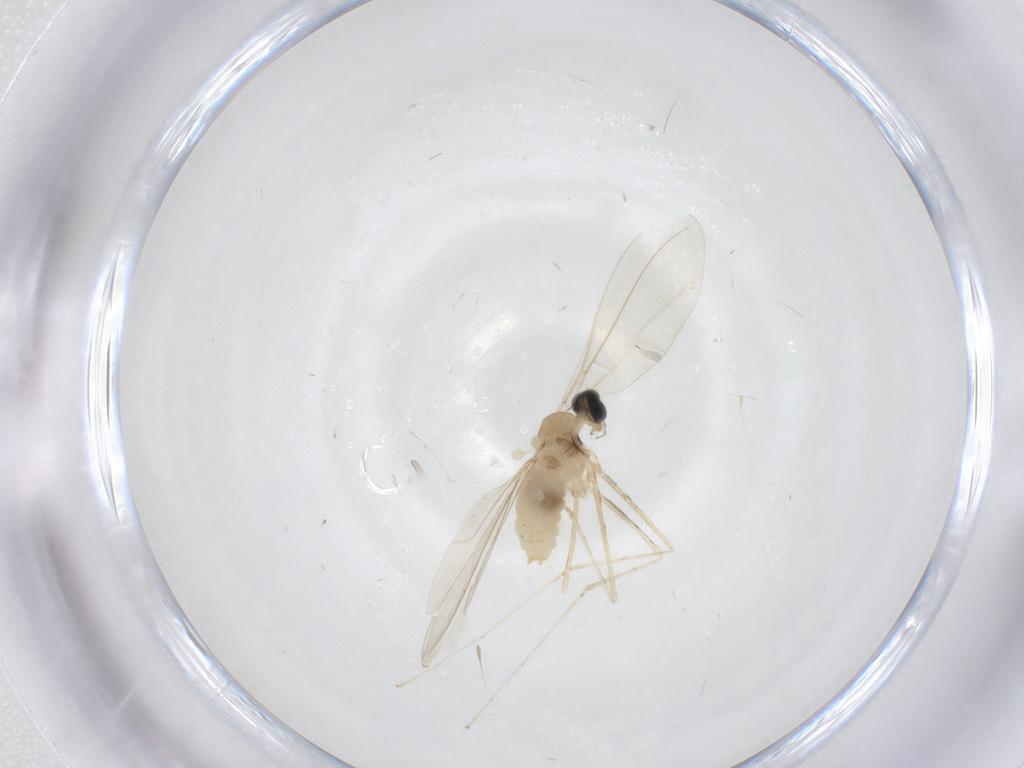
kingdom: Animalia
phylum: Arthropoda
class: Insecta
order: Diptera
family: Cecidomyiidae
